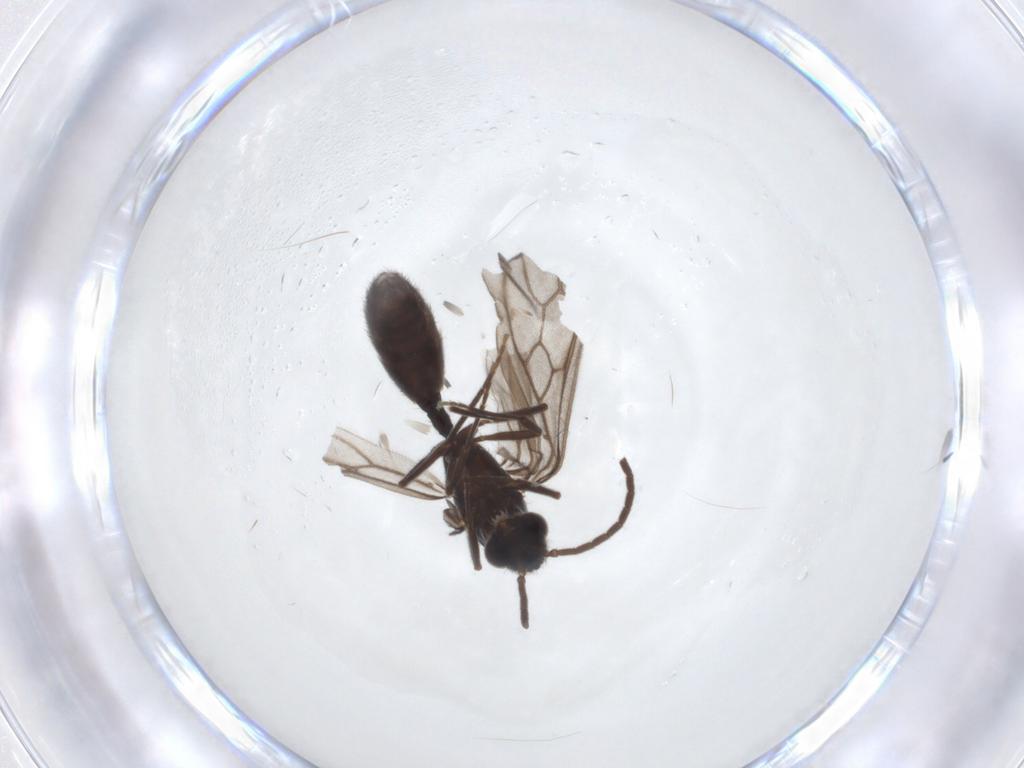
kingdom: Animalia
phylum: Arthropoda
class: Insecta
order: Hymenoptera
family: Formicidae
